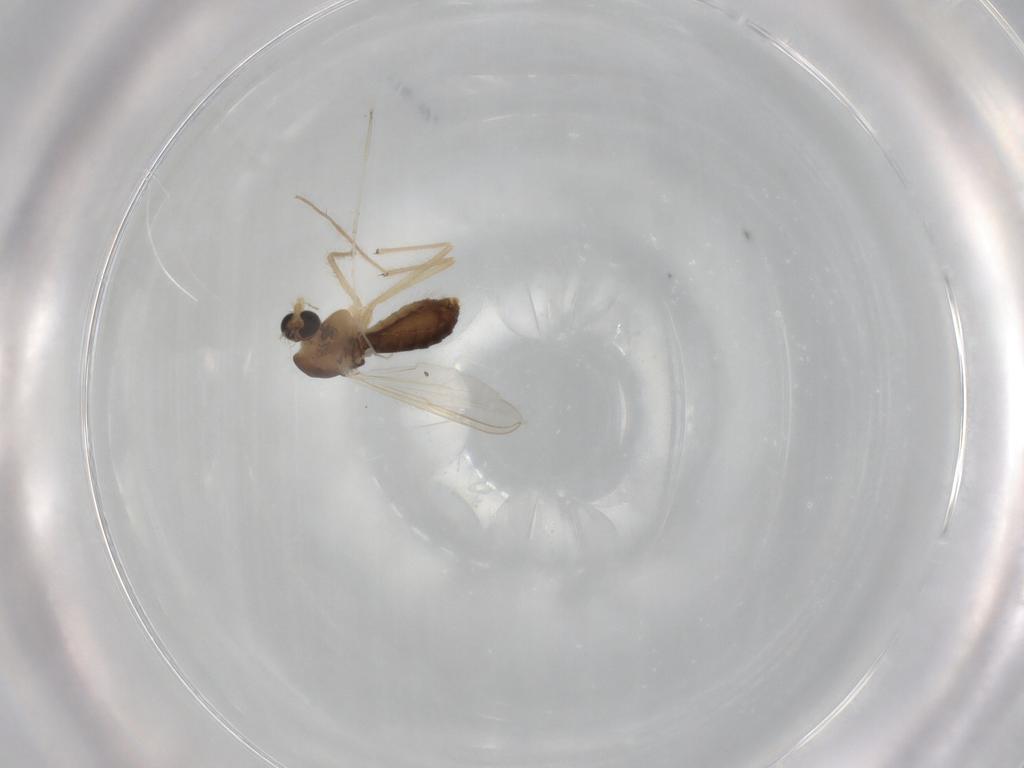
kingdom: Animalia
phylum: Arthropoda
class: Insecta
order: Diptera
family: Chironomidae
